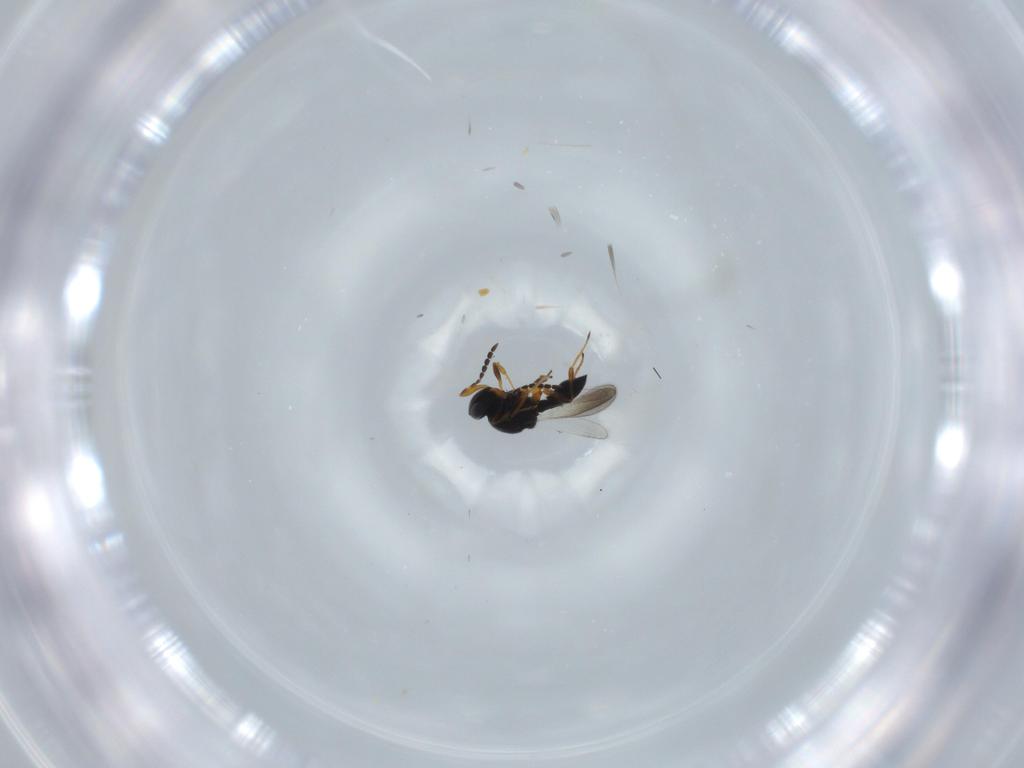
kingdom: Animalia
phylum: Arthropoda
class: Insecta
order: Hymenoptera
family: Platygastridae
